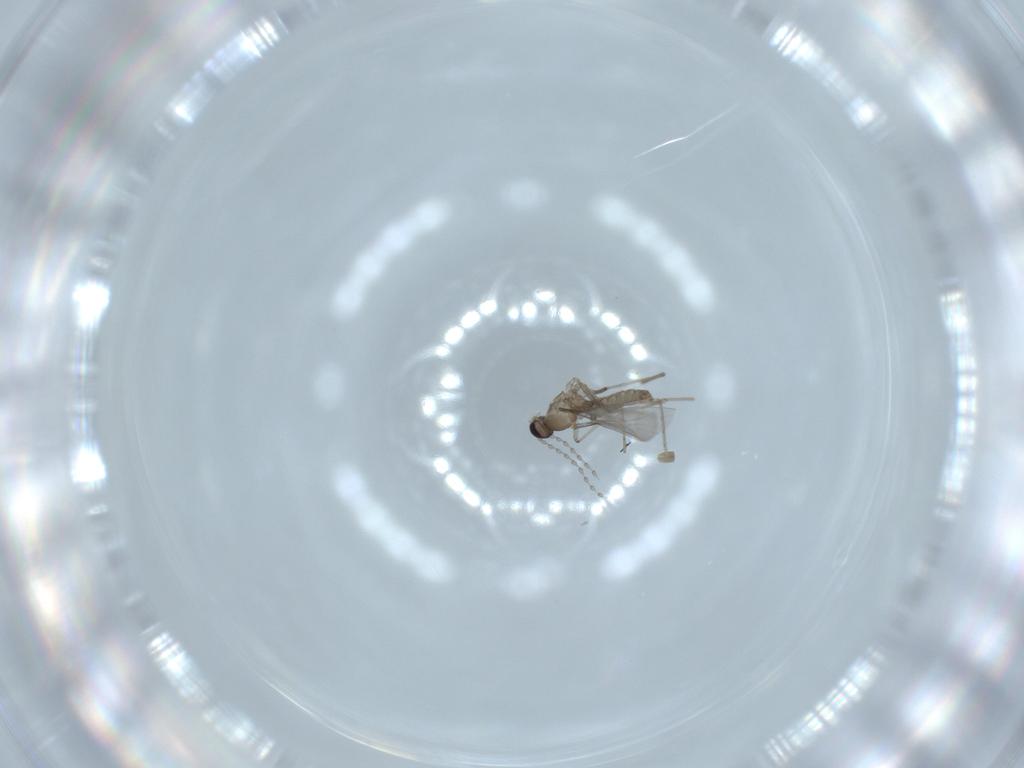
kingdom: Animalia
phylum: Arthropoda
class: Insecta
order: Diptera
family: Cecidomyiidae
